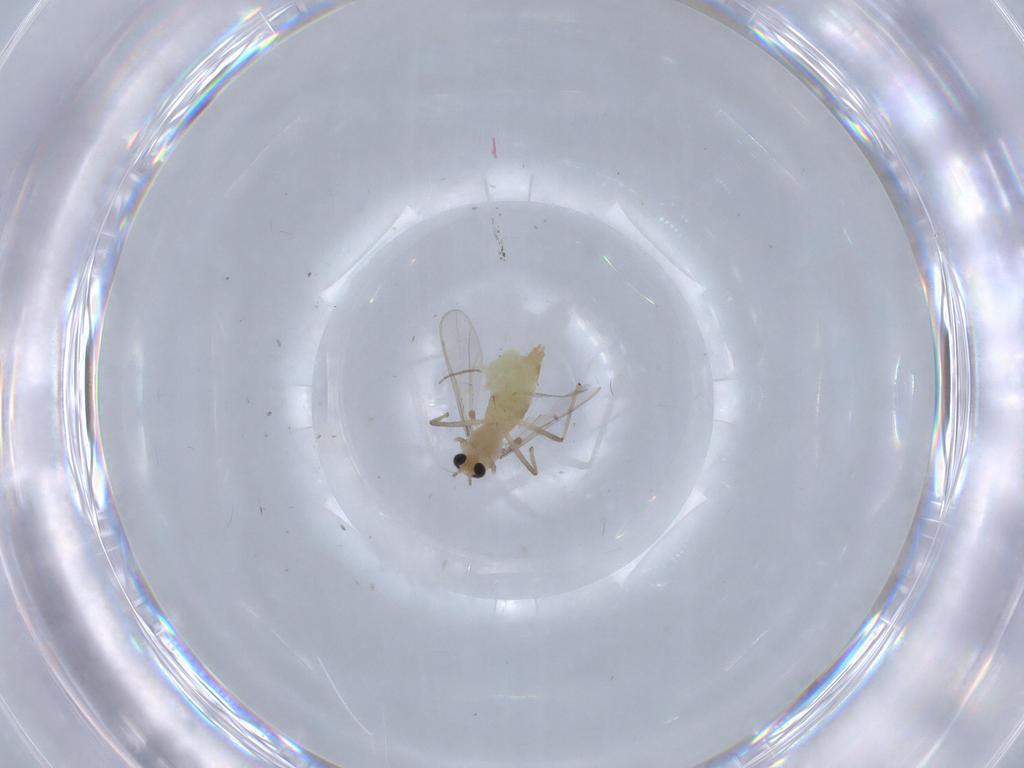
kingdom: Animalia
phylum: Arthropoda
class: Insecta
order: Diptera
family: Chironomidae
